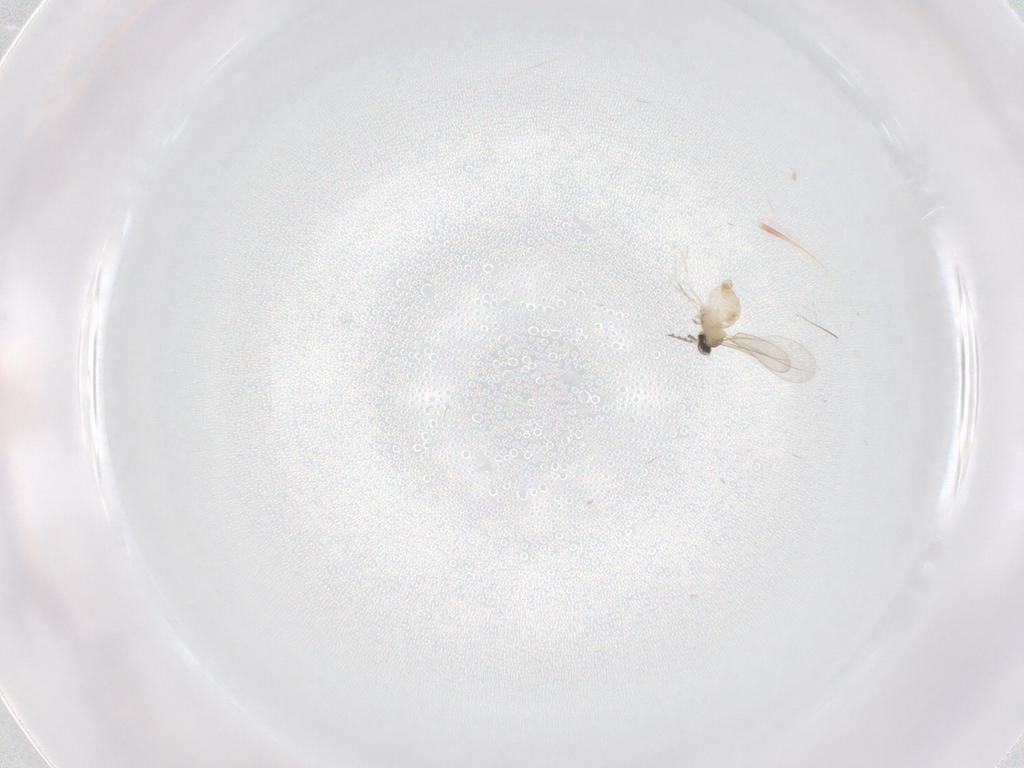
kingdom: Animalia
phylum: Arthropoda
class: Insecta
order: Diptera
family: Cecidomyiidae
